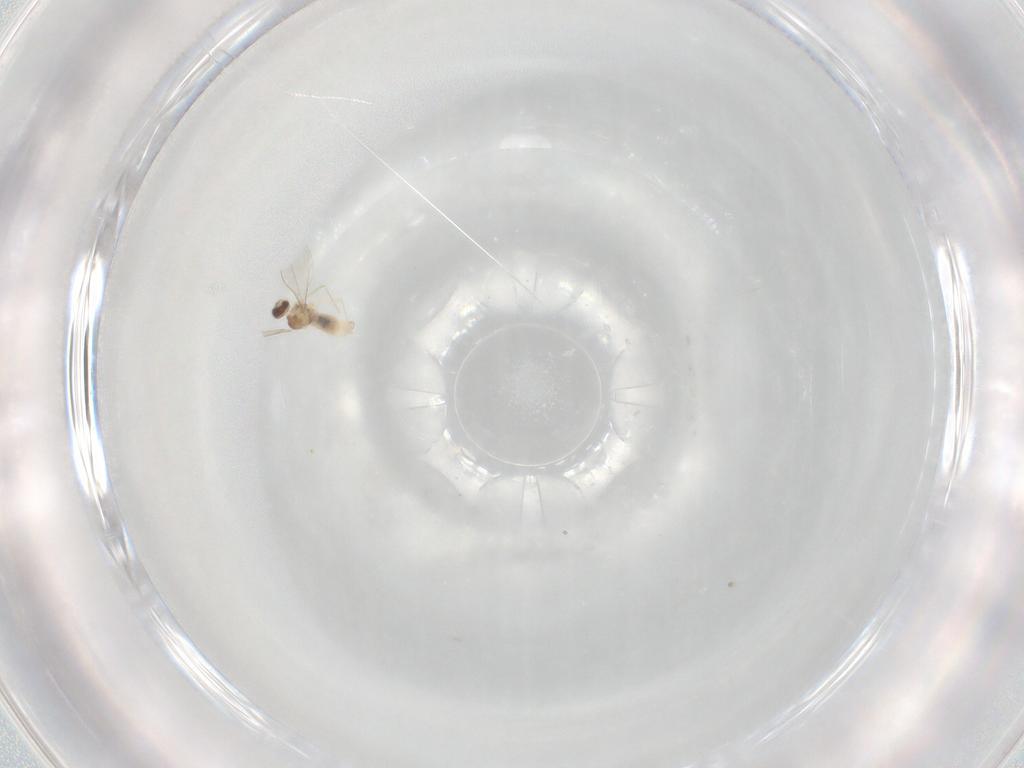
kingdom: Animalia
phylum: Arthropoda
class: Insecta
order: Diptera
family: Cecidomyiidae
